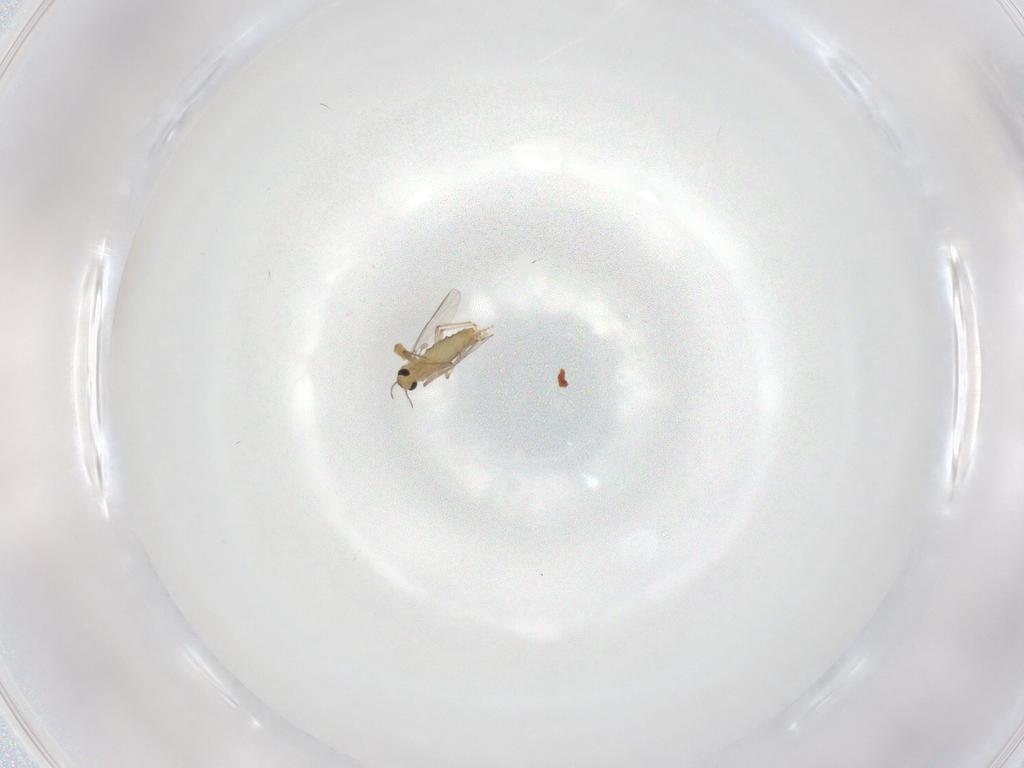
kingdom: Animalia
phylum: Arthropoda
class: Insecta
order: Diptera
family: Chironomidae
